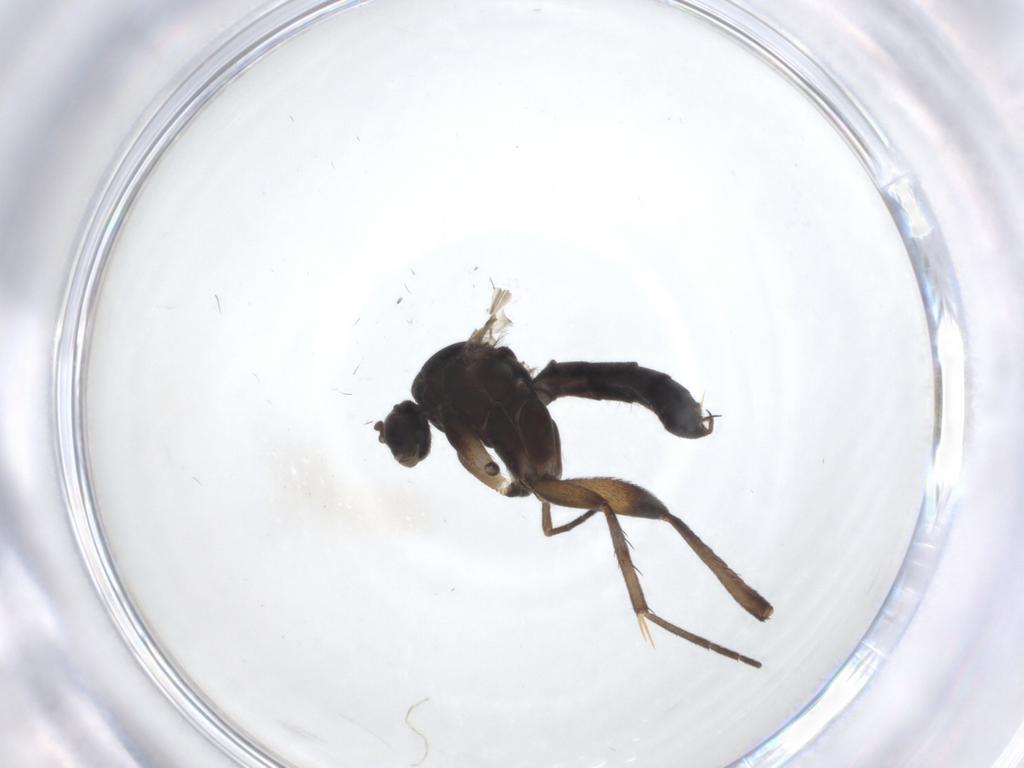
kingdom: Animalia
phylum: Arthropoda
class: Insecta
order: Diptera
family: Mycetophilidae
